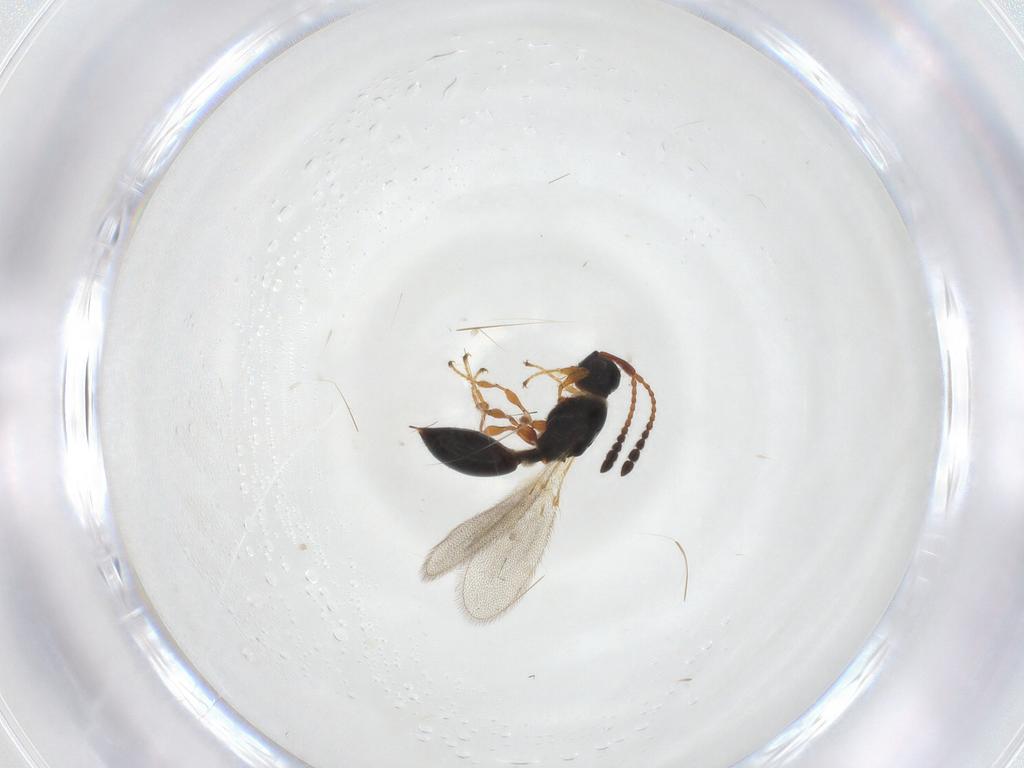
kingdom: Animalia
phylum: Arthropoda
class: Insecta
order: Hymenoptera
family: Diapriidae
